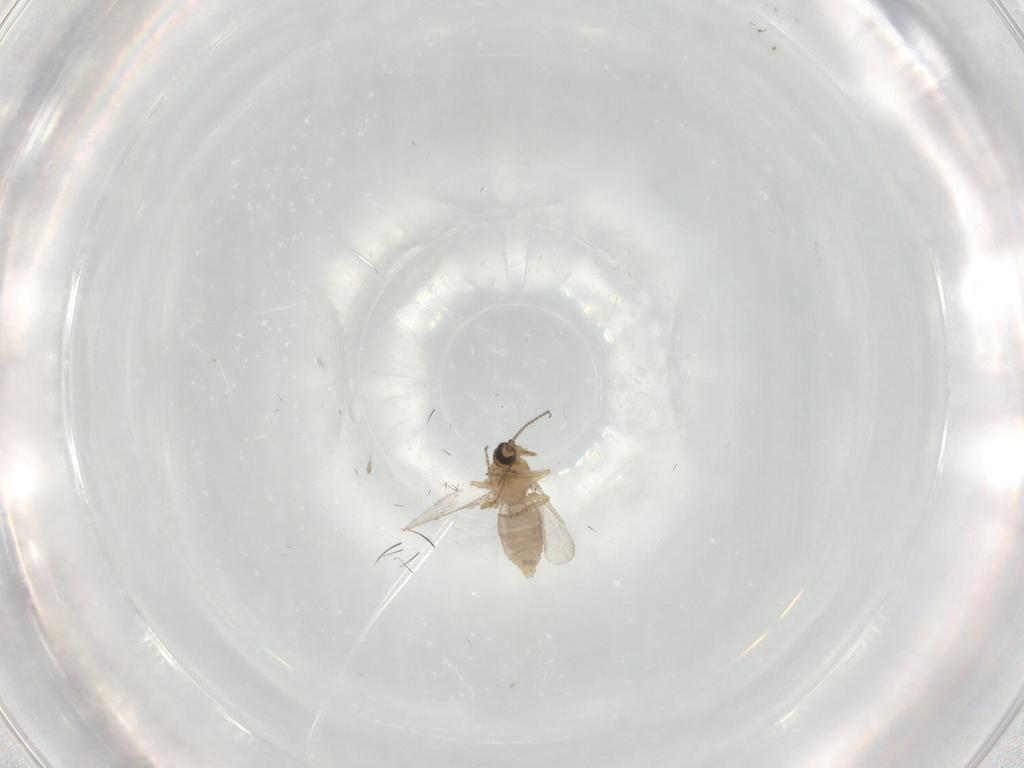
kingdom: Animalia
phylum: Arthropoda
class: Insecta
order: Diptera
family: Ceratopogonidae
